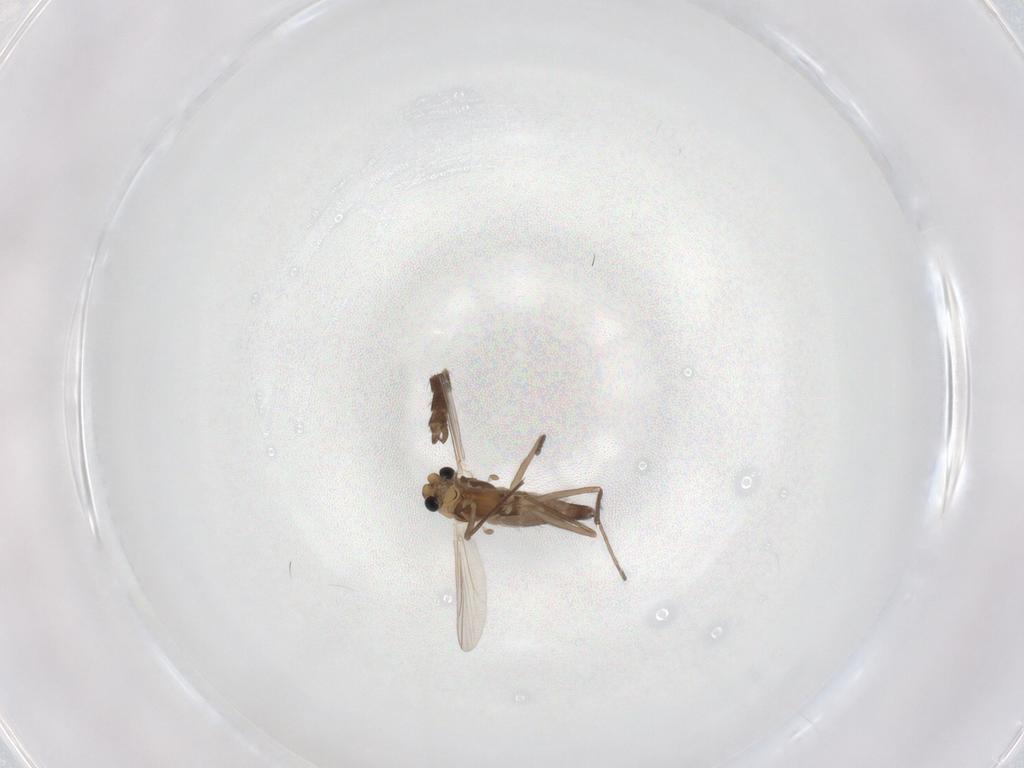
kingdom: Animalia
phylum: Arthropoda
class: Insecta
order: Diptera
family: Chironomidae
